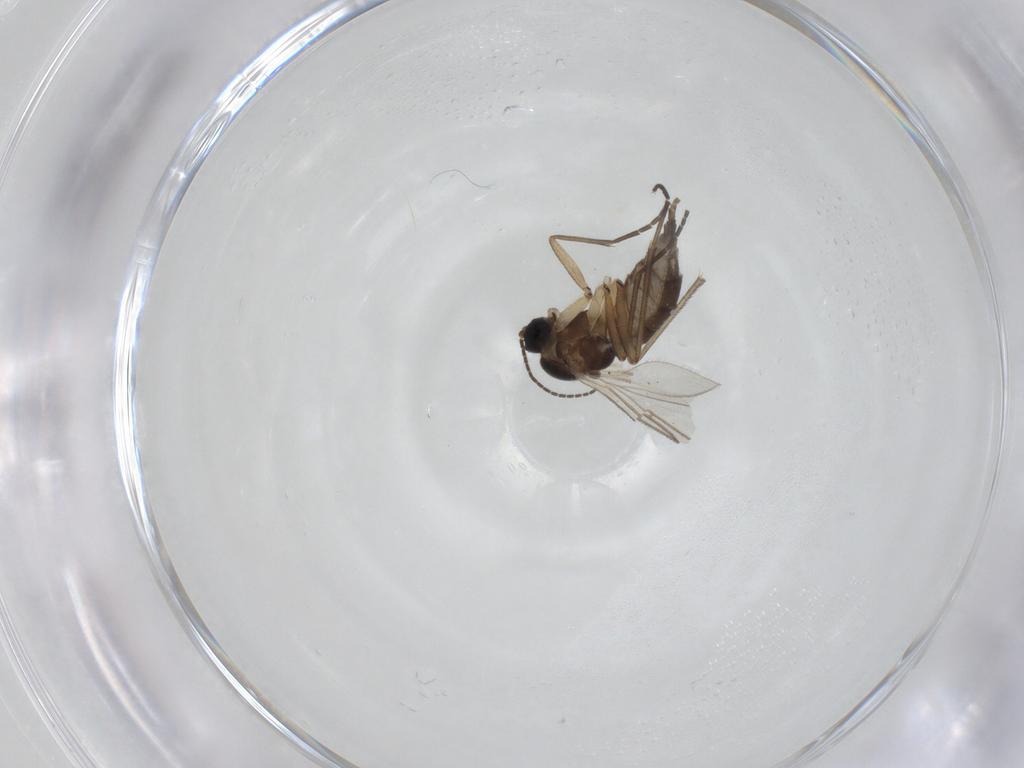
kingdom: Animalia
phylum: Arthropoda
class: Insecta
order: Diptera
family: Sciaridae
